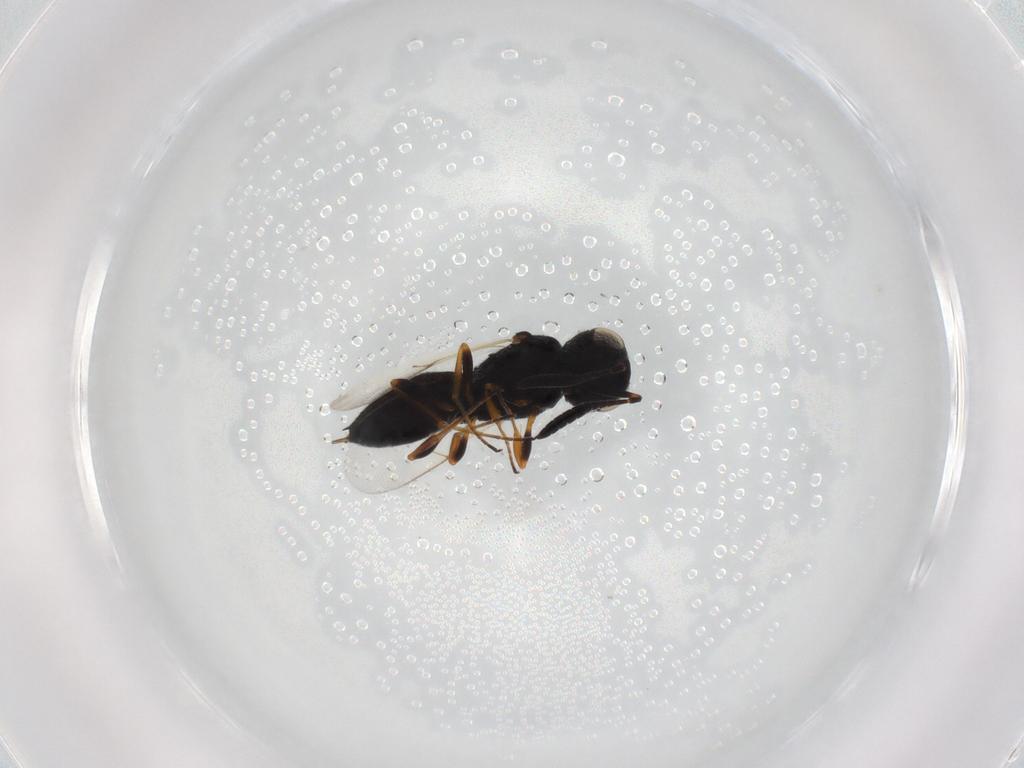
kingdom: Animalia
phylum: Arthropoda
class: Insecta
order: Hymenoptera
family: Scelionidae
